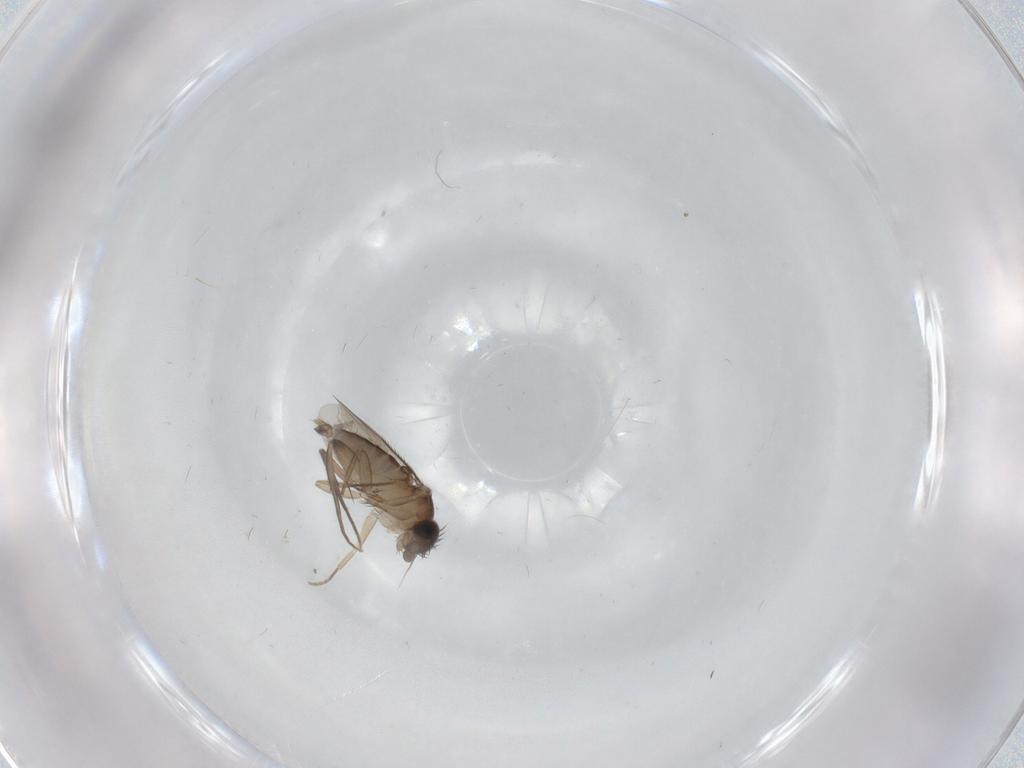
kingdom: Animalia
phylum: Arthropoda
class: Insecta
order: Diptera
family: Phoridae
